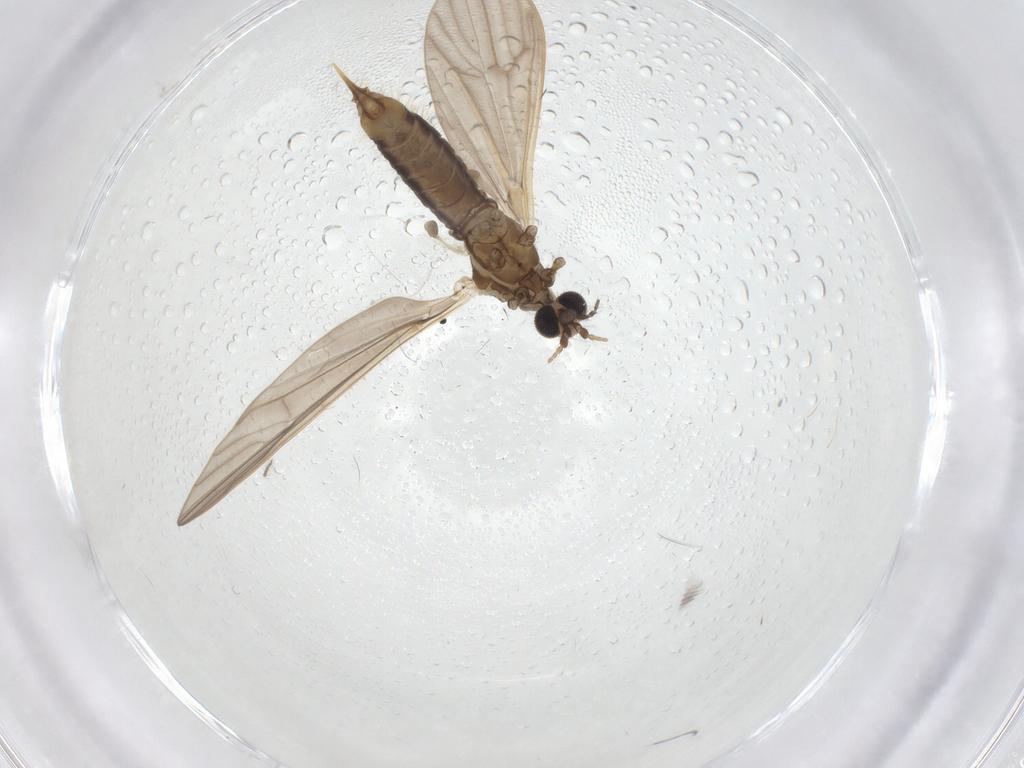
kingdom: Animalia
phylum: Arthropoda
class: Insecta
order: Diptera
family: Limoniidae
